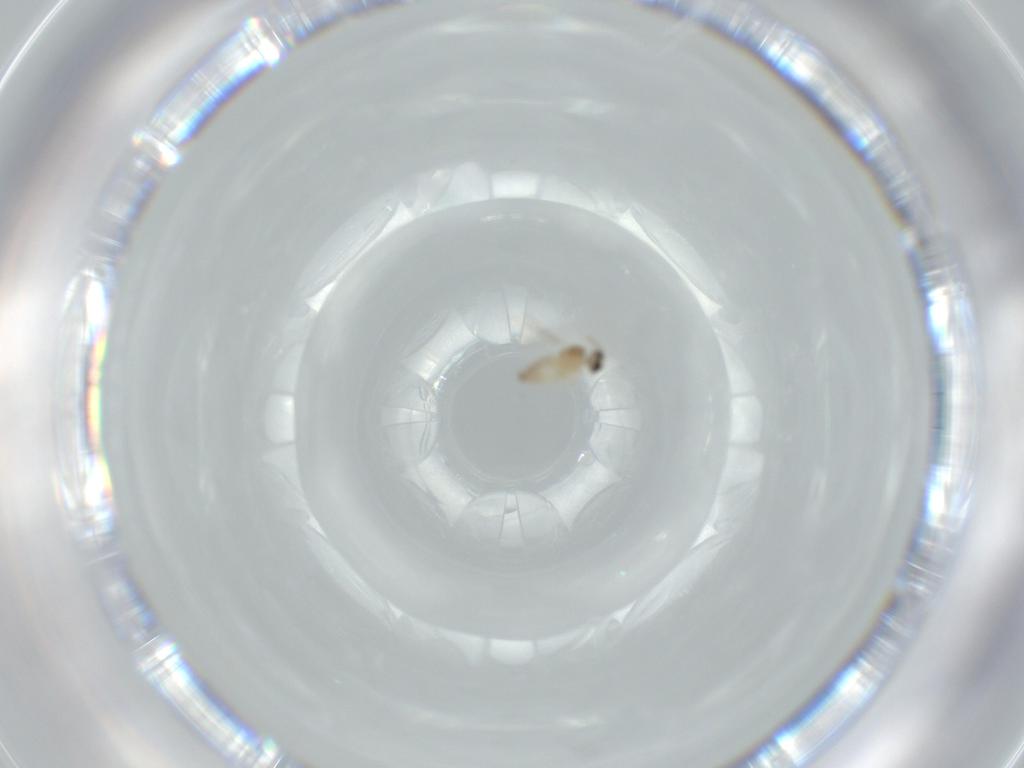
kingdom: Animalia
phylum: Arthropoda
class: Insecta
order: Diptera
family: Cecidomyiidae
